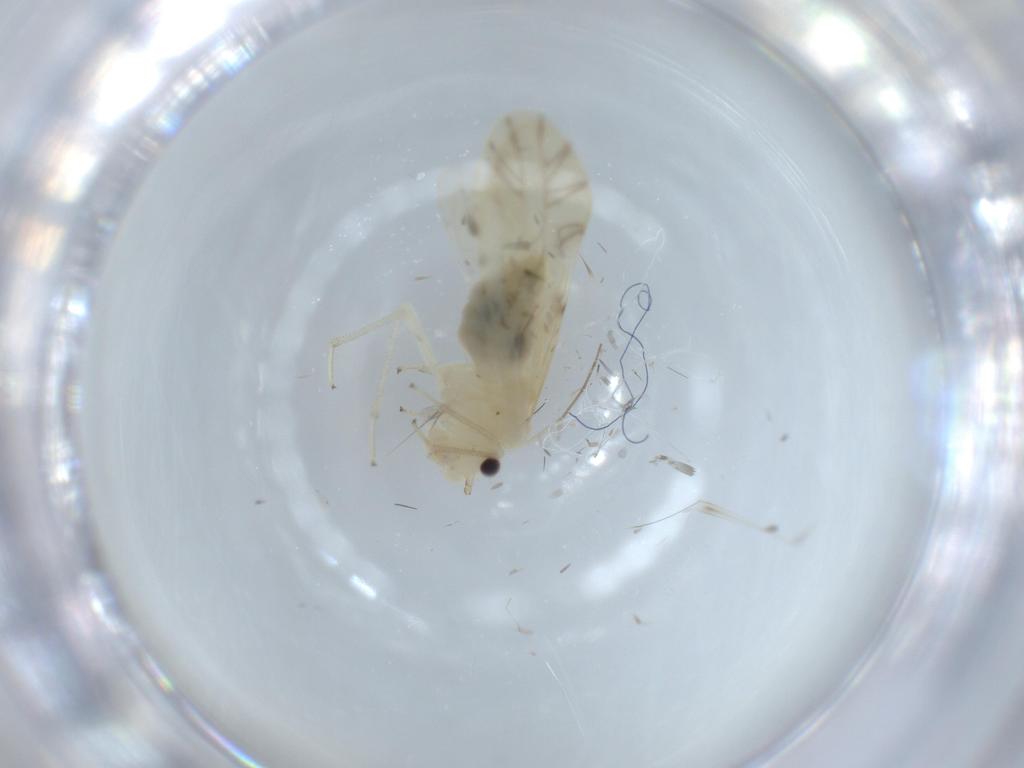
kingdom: Animalia
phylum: Arthropoda
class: Insecta
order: Psocodea
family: Caeciliusidae
